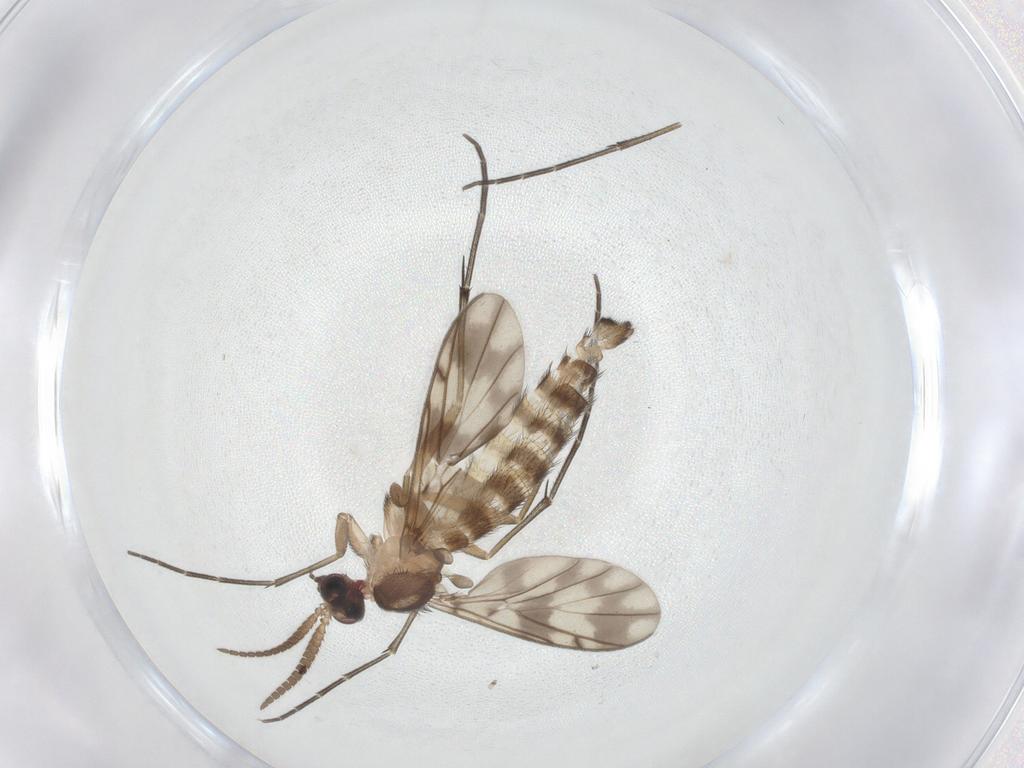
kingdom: Animalia
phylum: Arthropoda
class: Insecta
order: Diptera
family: Keroplatidae
